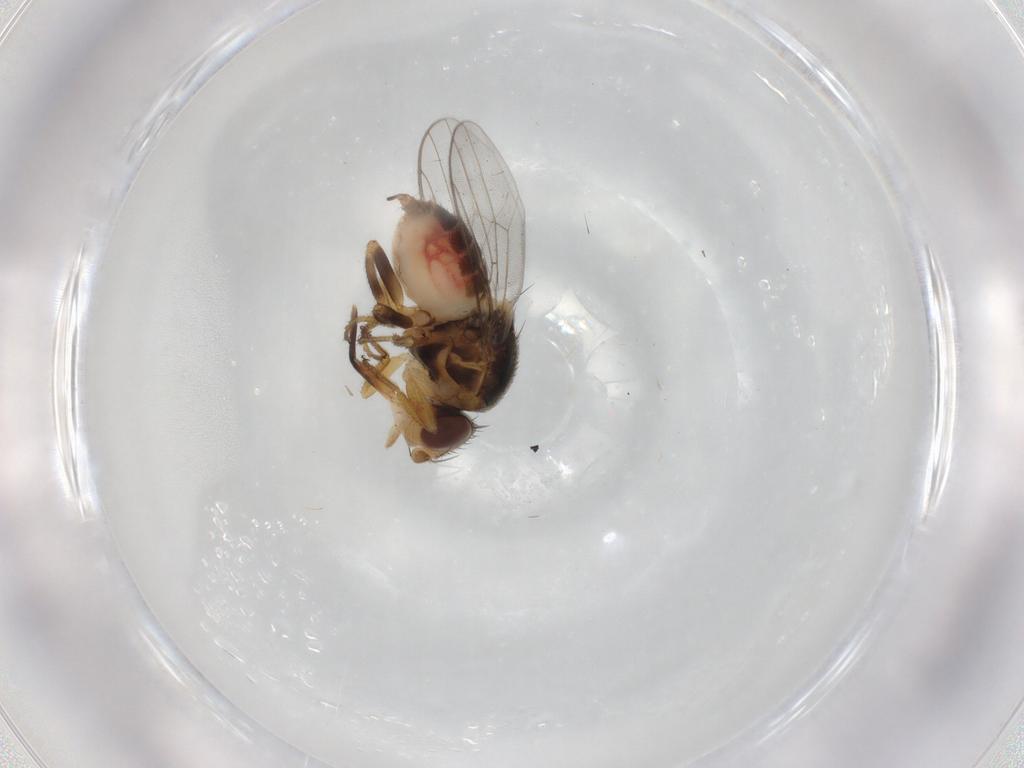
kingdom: Animalia
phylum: Arthropoda
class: Insecta
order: Diptera
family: Chloropidae
